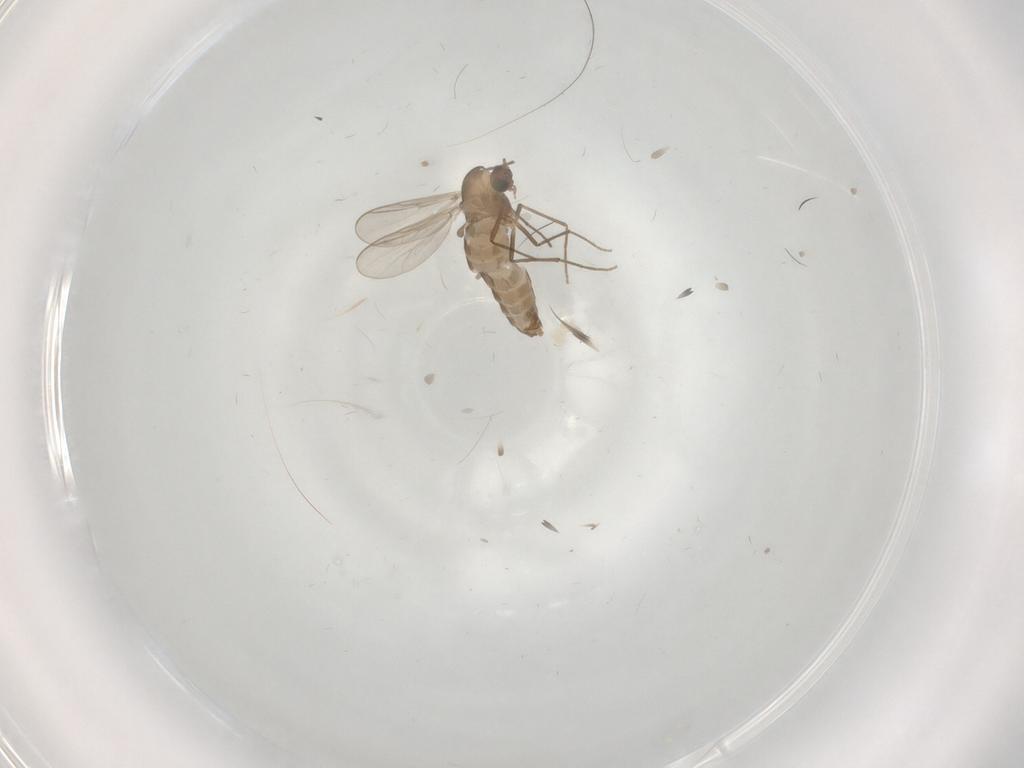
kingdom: Animalia
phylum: Arthropoda
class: Insecta
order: Diptera
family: Chironomidae
